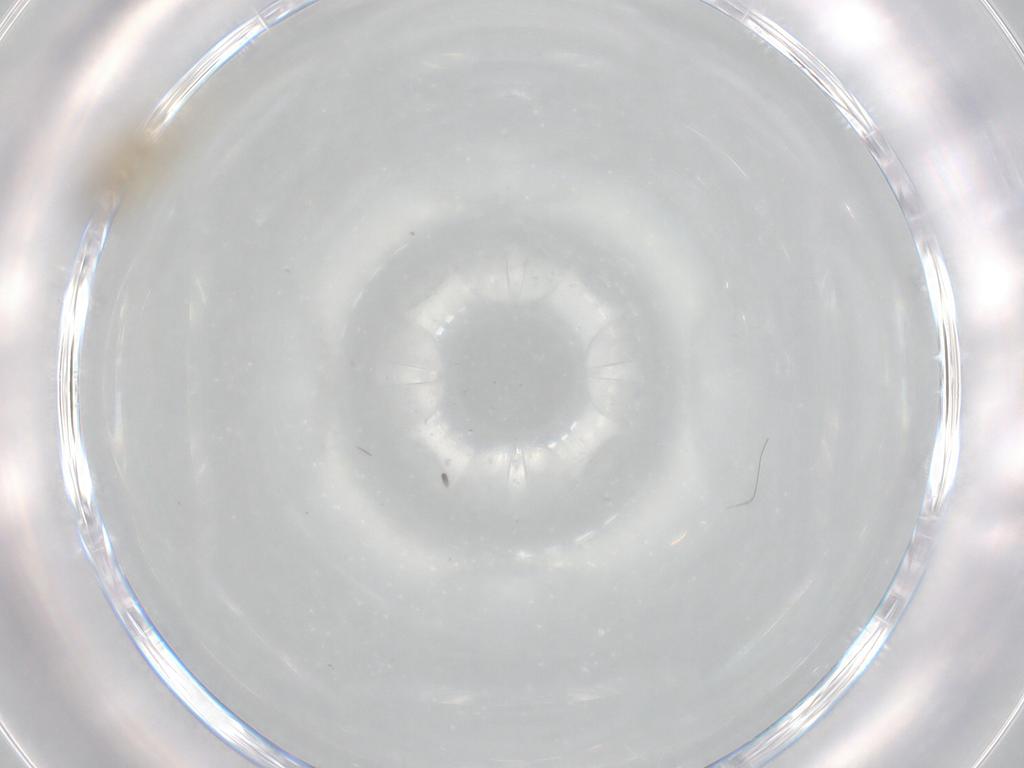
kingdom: Animalia
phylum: Arthropoda
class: Insecta
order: Diptera
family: Cecidomyiidae
